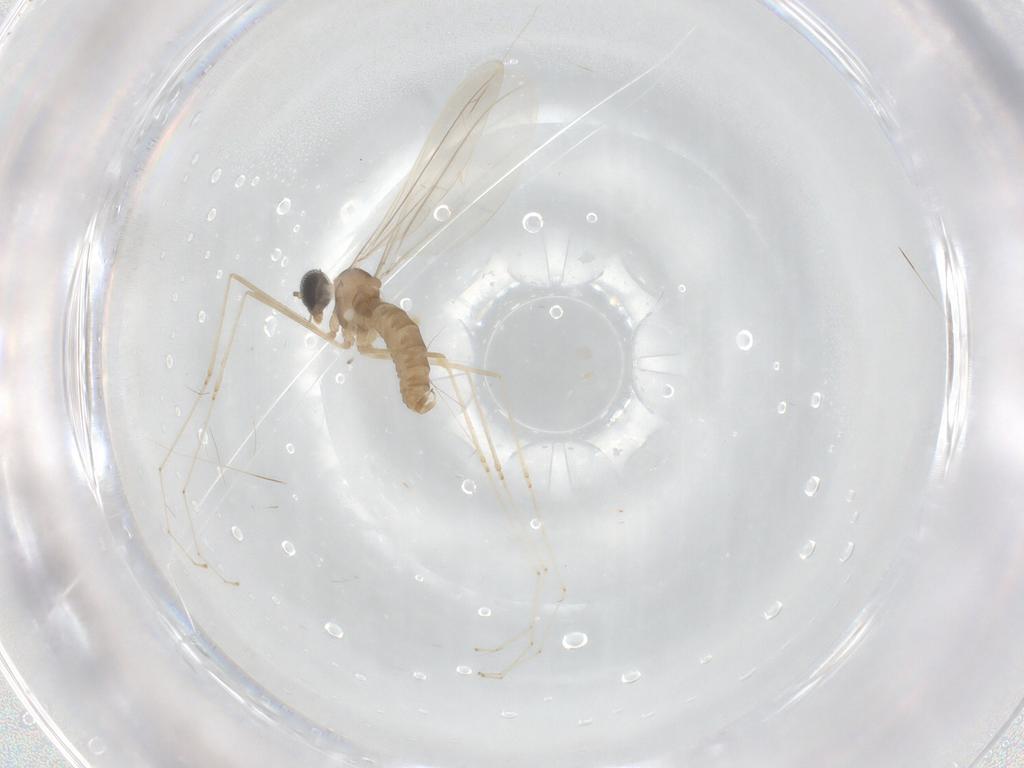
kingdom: Animalia
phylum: Arthropoda
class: Insecta
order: Diptera
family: Cecidomyiidae
